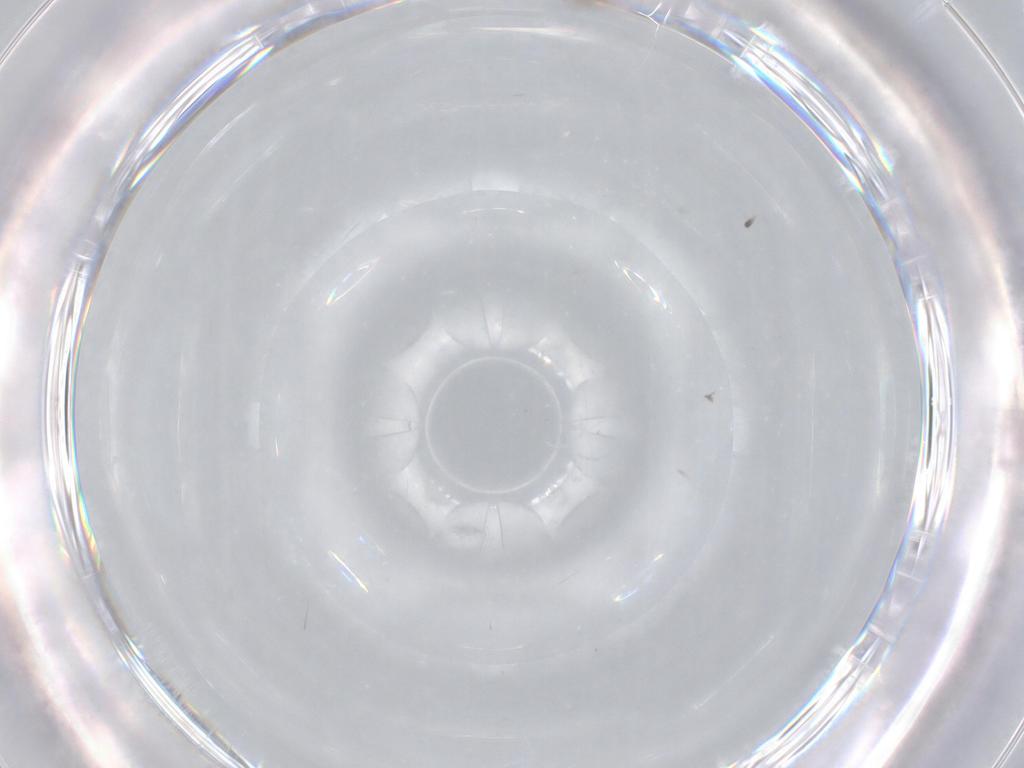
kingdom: Animalia
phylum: Arthropoda
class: Insecta
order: Diptera
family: Cecidomyiidae
